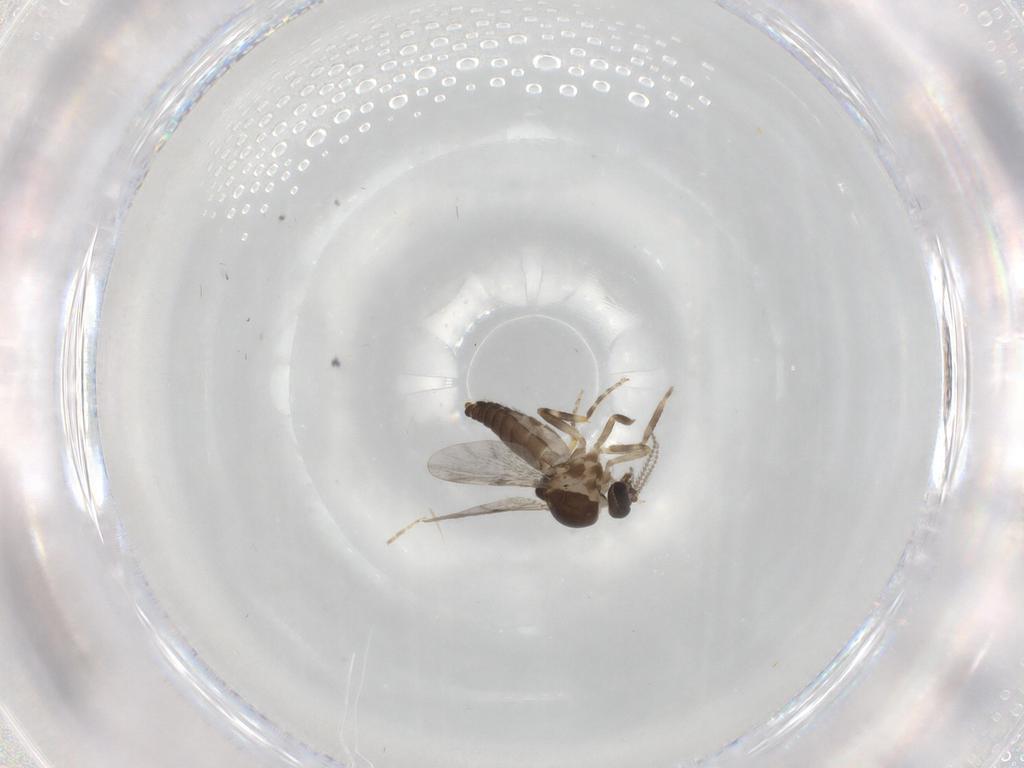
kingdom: Animalia
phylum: Arthropoda
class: Insecta
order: Diptera
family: Ceratopogonidae
